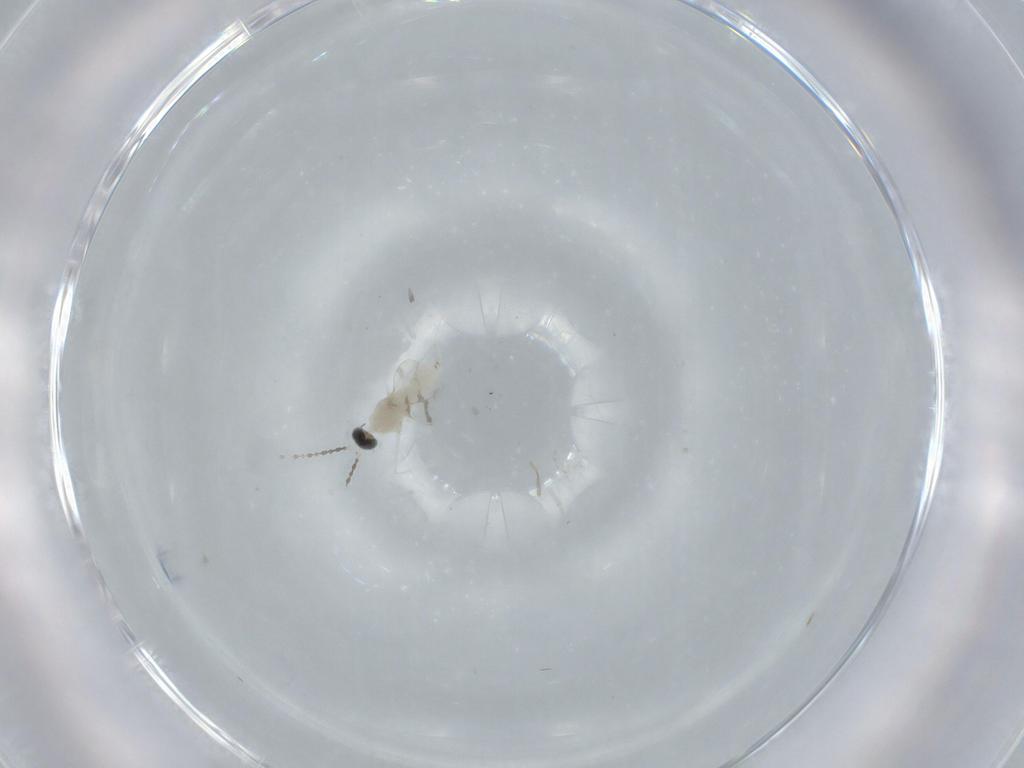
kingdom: Animalia
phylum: Arthropoda
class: Insecta
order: Diptera
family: Cecidomyiidae
